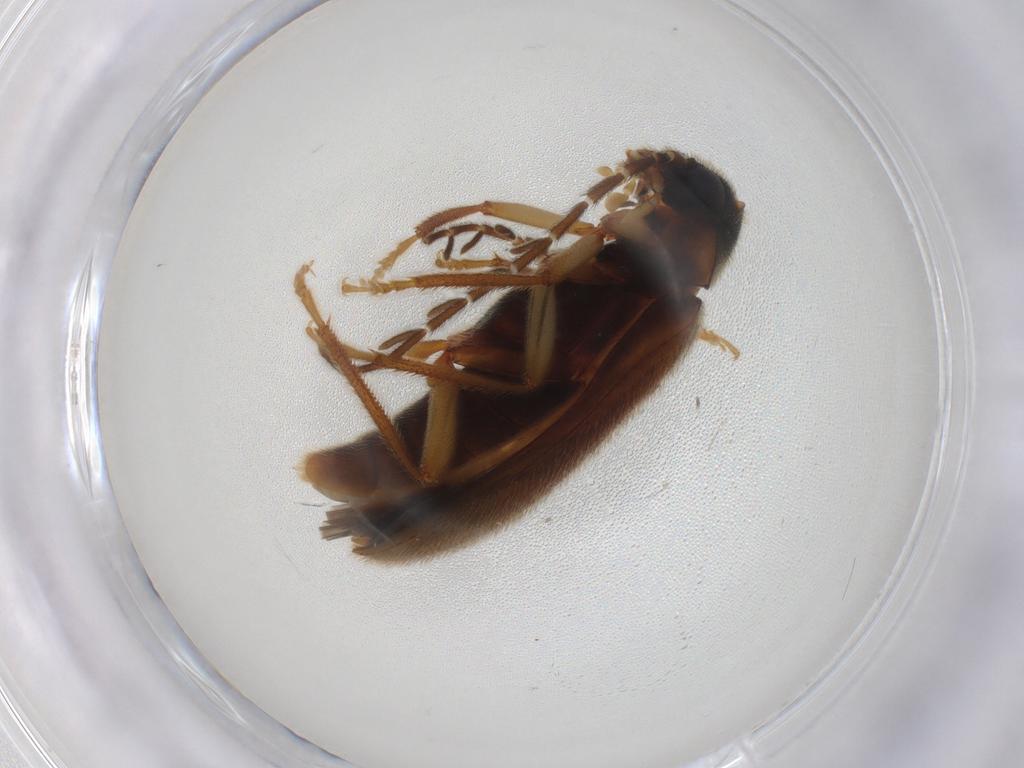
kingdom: Animalia
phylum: Arthropoda
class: Insecta
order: Coleoptera
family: Ptilodactylidae
